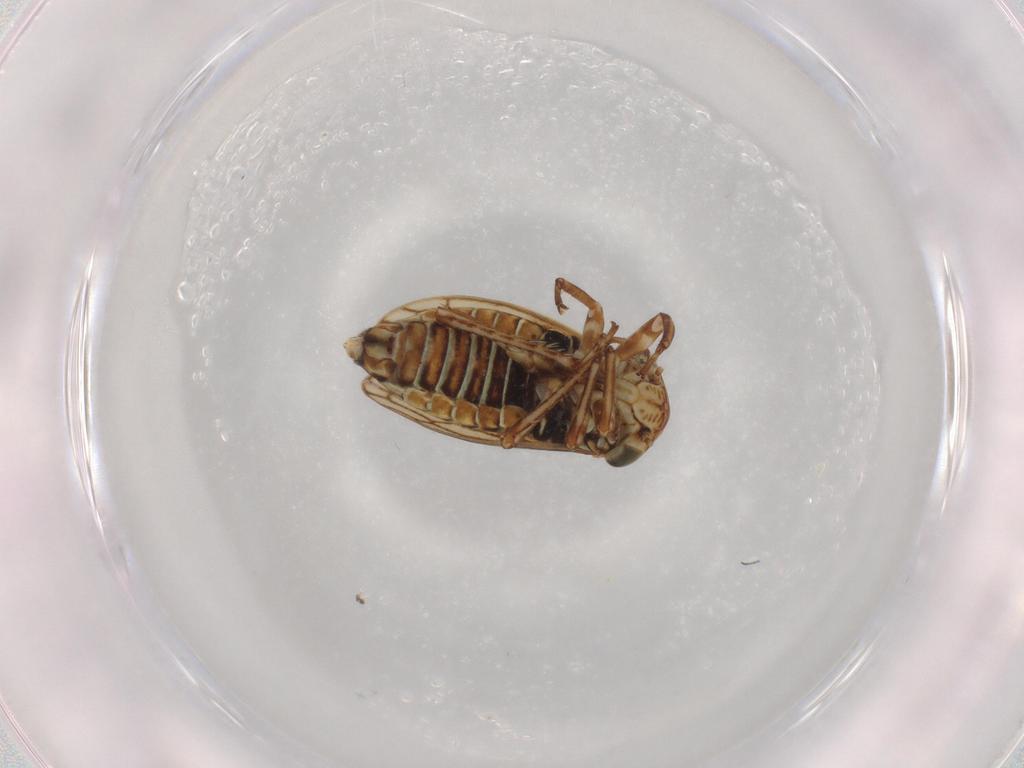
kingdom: Animalia
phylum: Arthropoda
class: Insecta
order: Hemiptera
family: Cicadellidae
